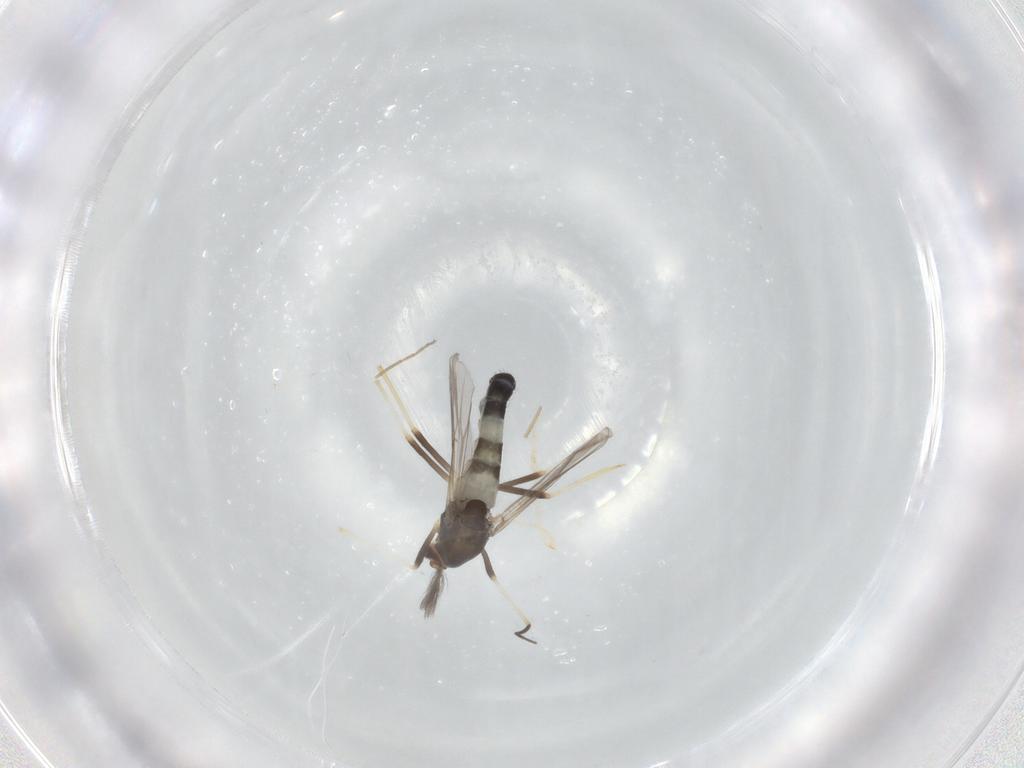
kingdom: Animalia
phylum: Arthropoda
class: Insecta
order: Diptera
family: Chironomidae
